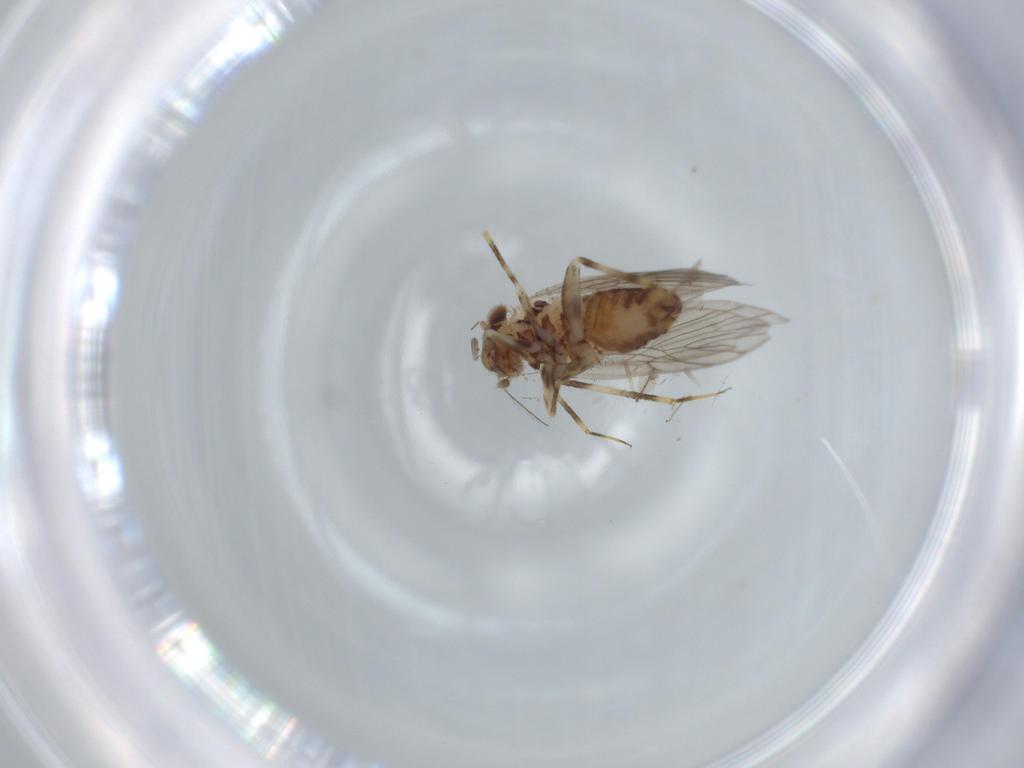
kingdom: Animalia
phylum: Arthropoda
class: Insecta
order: Psocodea
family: Lepidopsocidae
